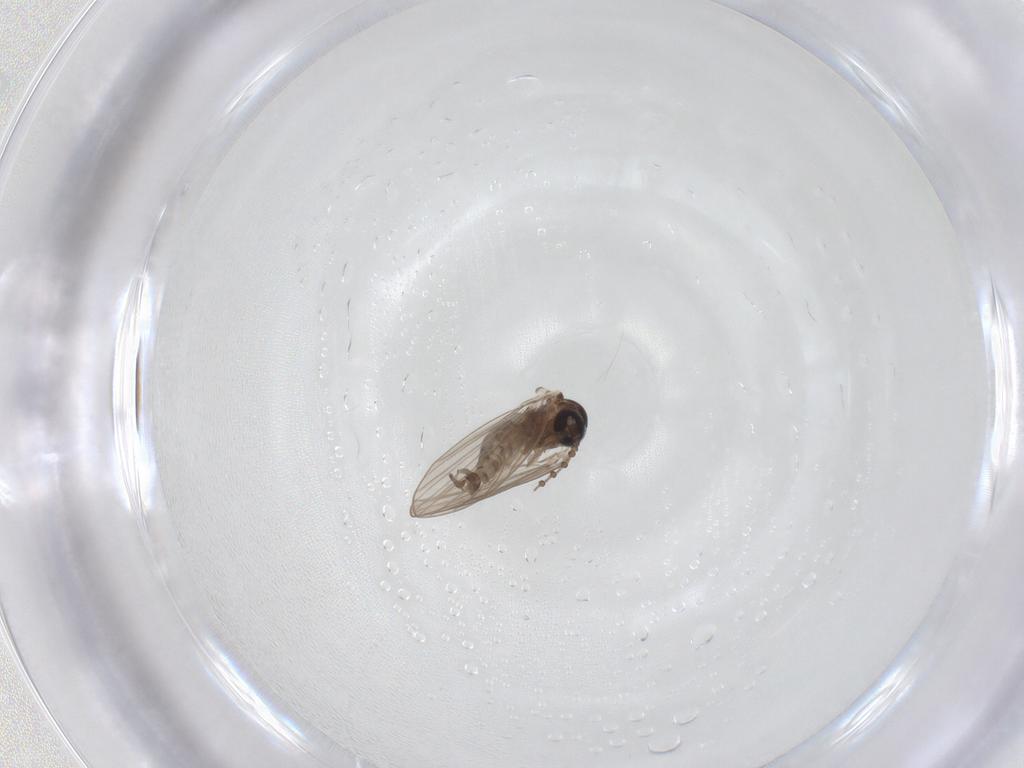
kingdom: Animalia
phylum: Arthropoda
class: Insecta
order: Diptera
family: Psychodidae
